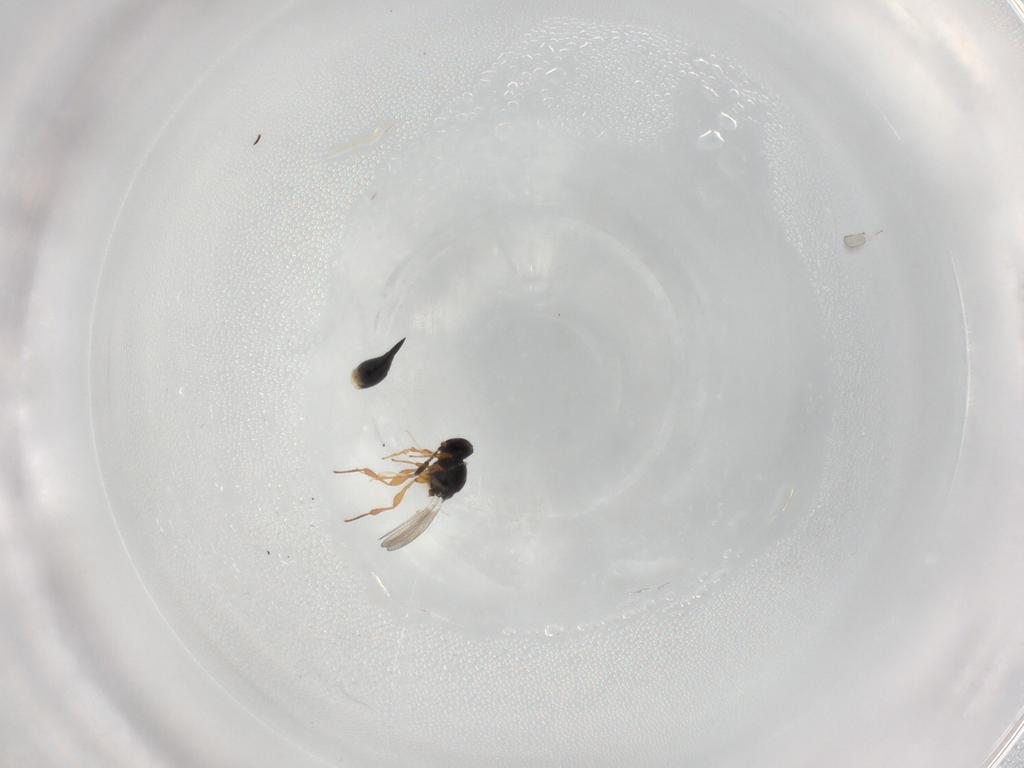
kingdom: Animalia
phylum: Arthropoda
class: Insecta
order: Hymenoptera
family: Platygastridae
